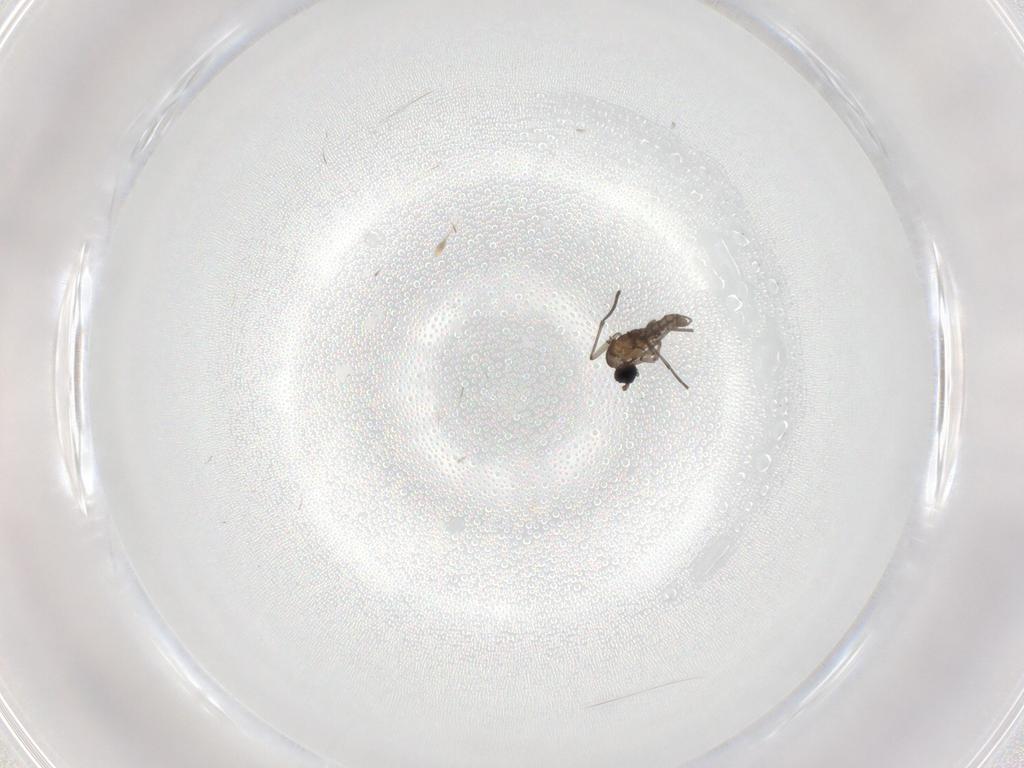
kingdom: Animalia
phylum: Arthropoda
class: Insecta
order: Diptera
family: Sciaridae
